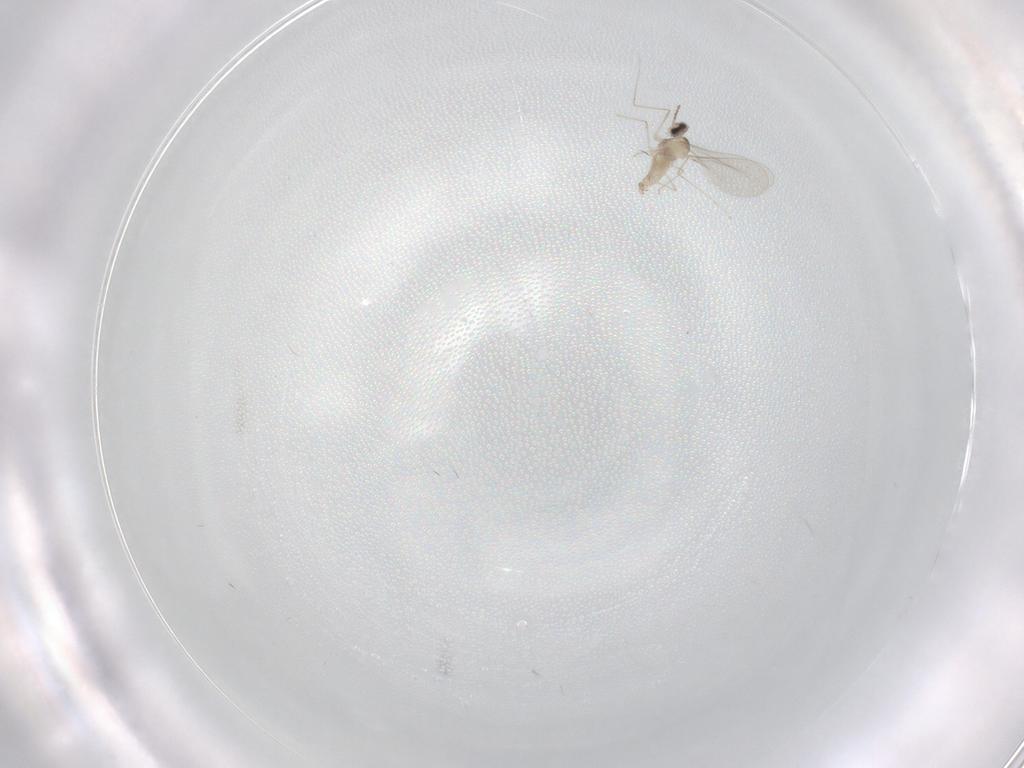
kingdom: Animalia
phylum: Arthropoda
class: Insecta
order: Diptera
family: Cecidomyiidae
